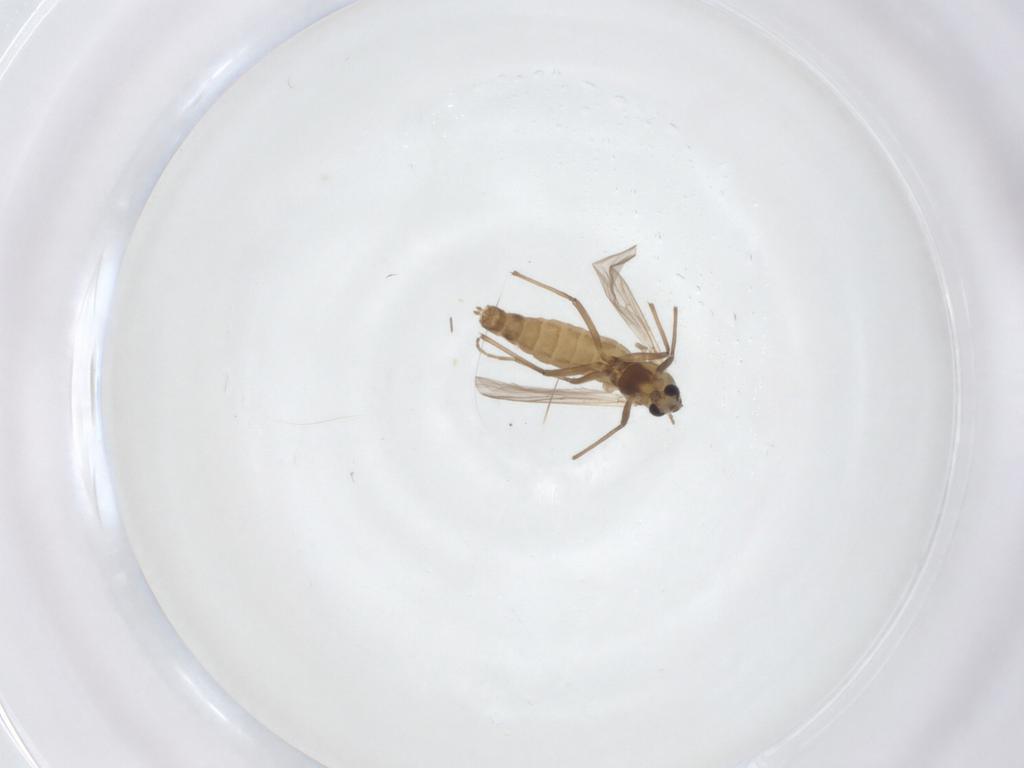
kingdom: Animalia
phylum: Arthropoda
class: Insecta
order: Diptera
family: Chironomidae
